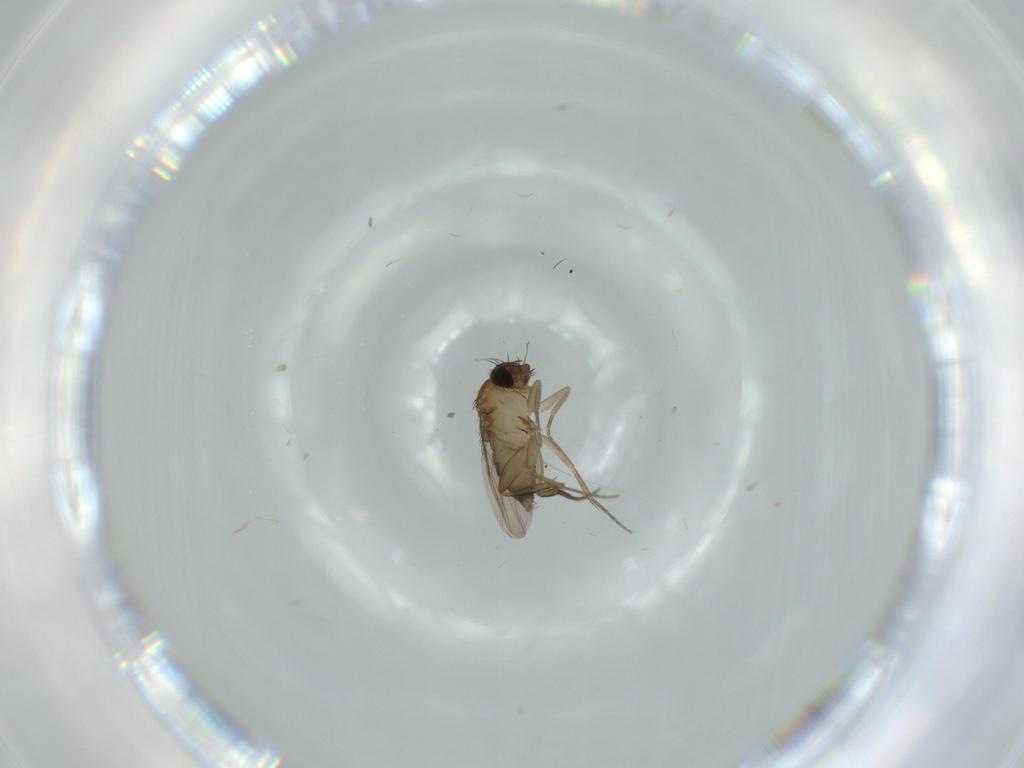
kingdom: Animalia
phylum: Arthropoda
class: Insecta
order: Diptera
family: Phoridae
